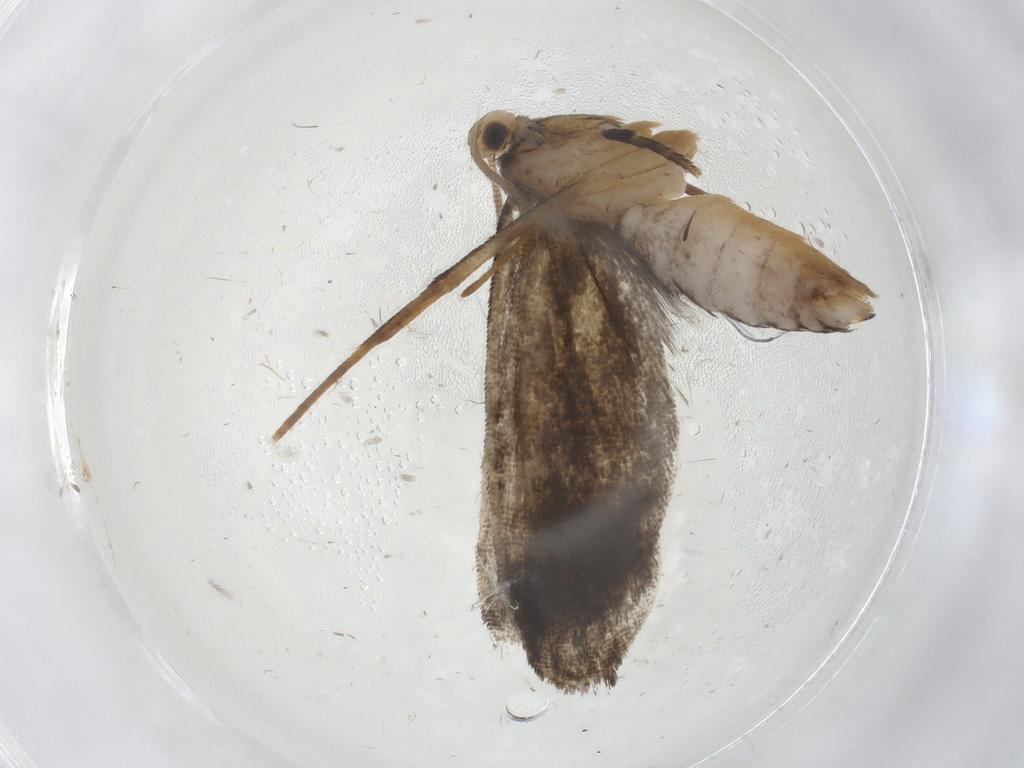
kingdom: Animalia
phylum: Arthropoda
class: Insecta
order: Lepidoptera
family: Dryadaulidae
